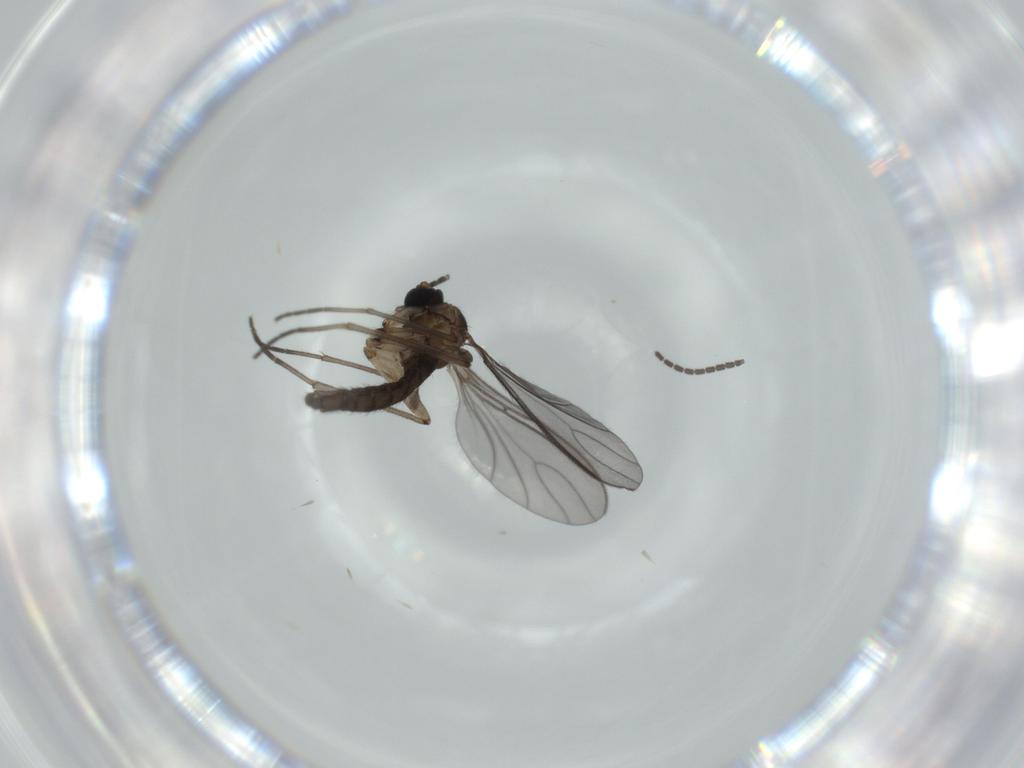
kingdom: Animalia
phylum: Arthropoda
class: Insecta
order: Diptera
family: Sciaridae
